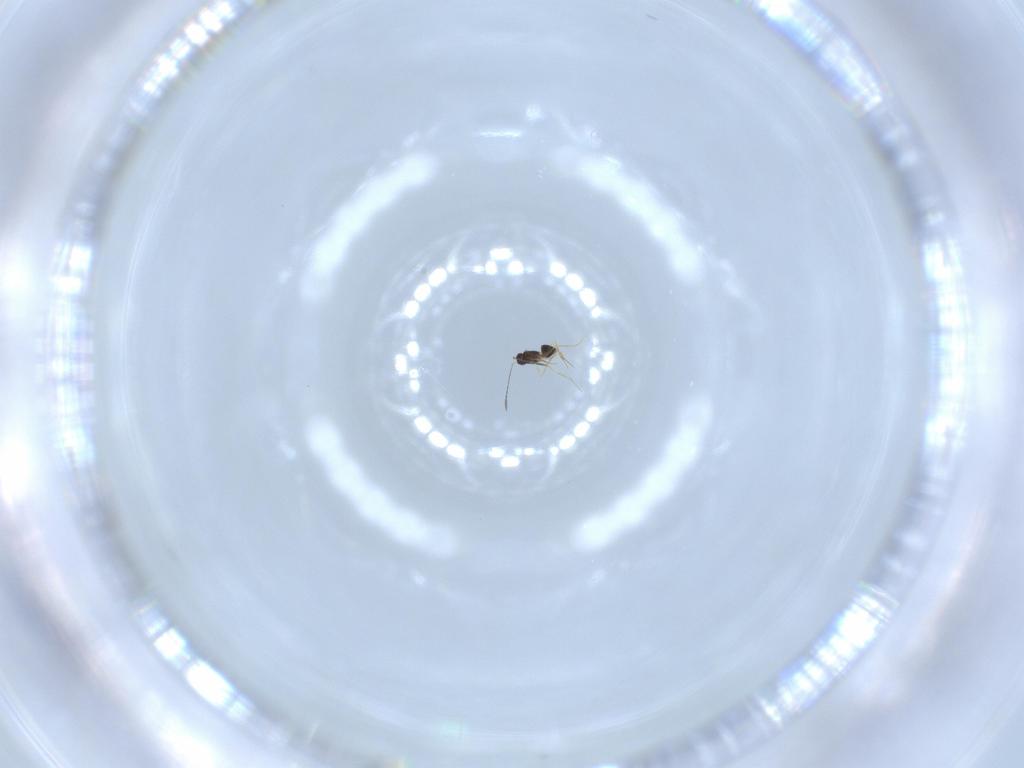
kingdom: Animalia
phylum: Arthropoda
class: Insecta
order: Hymenoptera
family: Mymaridae
